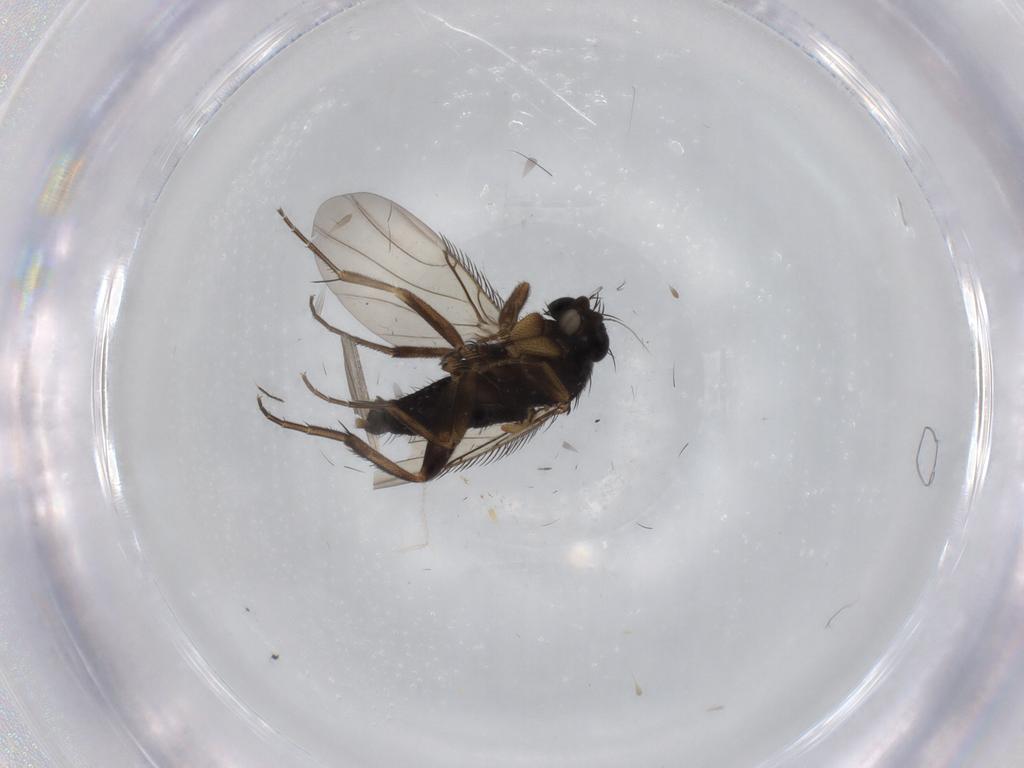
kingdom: Animalia
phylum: Arthropoda
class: Insecta
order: Diptera
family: Phoridae
